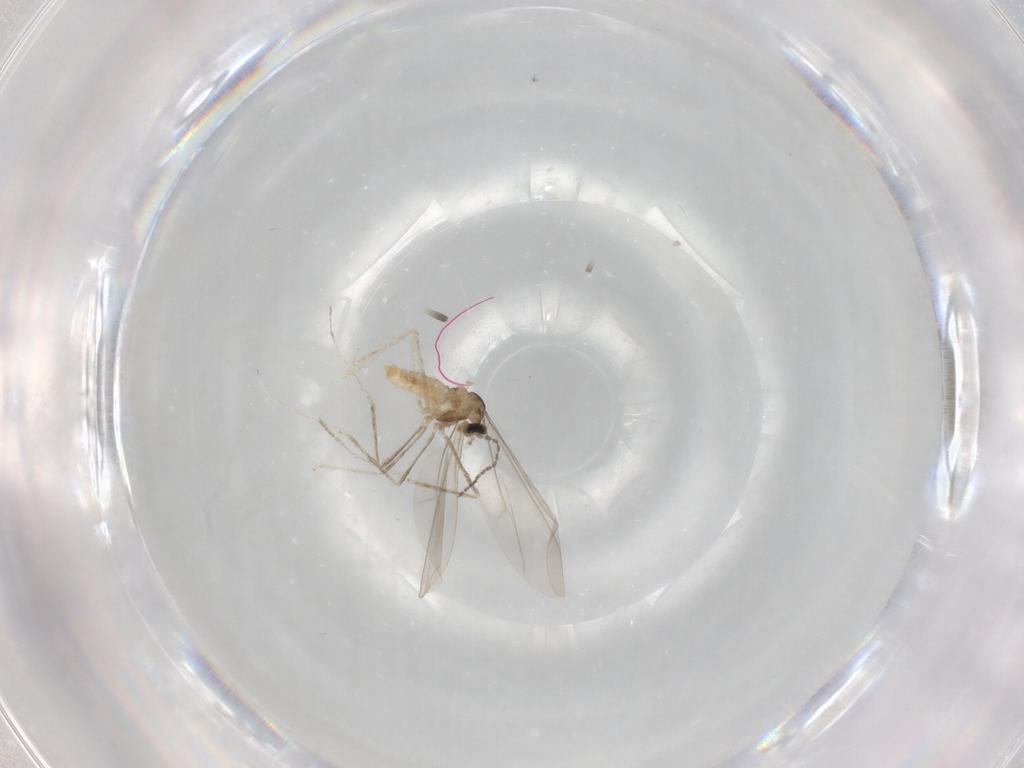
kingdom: Animalia
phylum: Arthropoda
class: Insecta
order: Diptera
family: Cecidomyiidae
